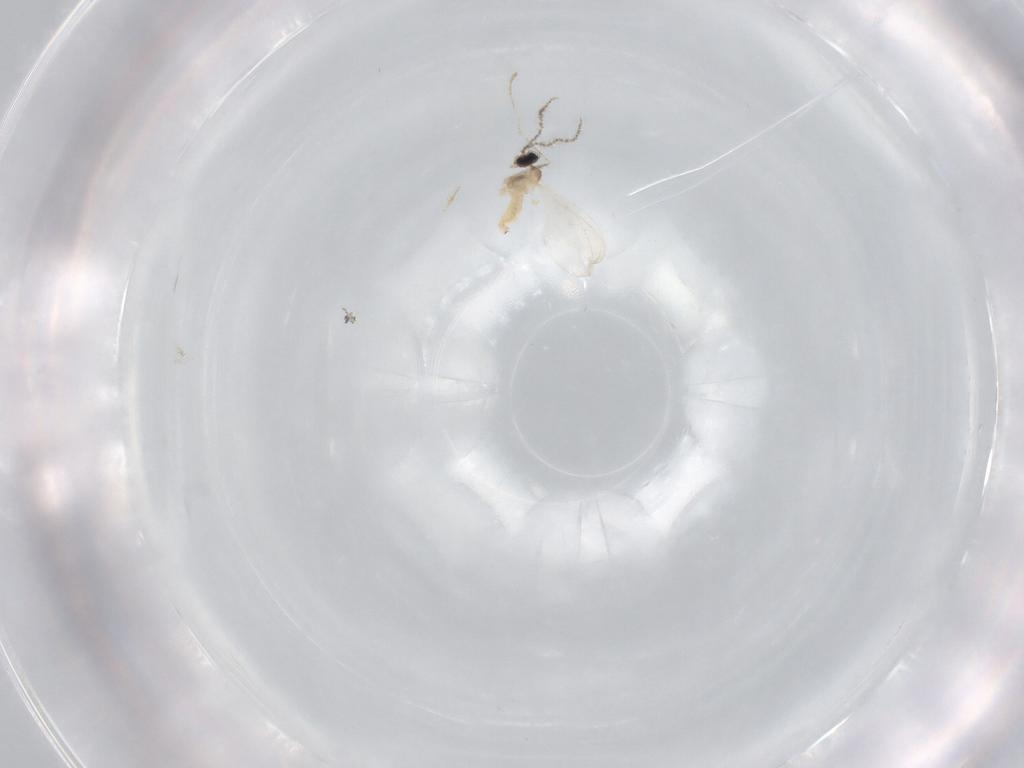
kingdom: Animalia
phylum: Arthropoda
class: Insecta
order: Diptera
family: Cecidomyiidae
